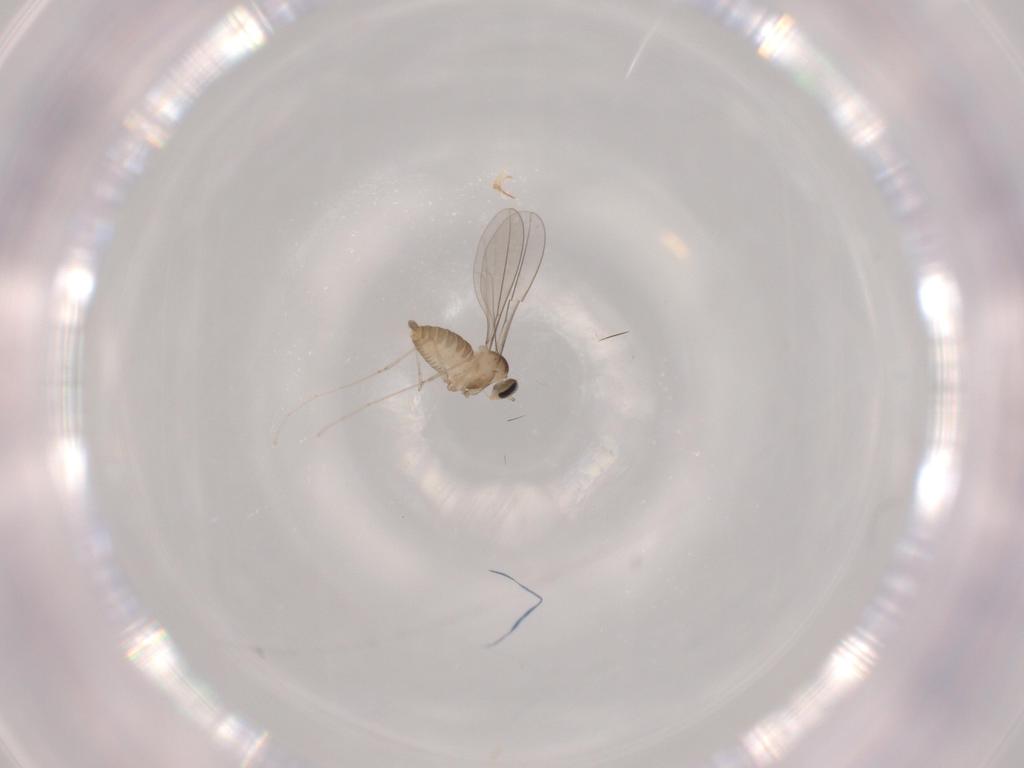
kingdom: Animalia
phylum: Arthropoda
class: Insecta
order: Diptera
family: Cecidomyiidae
